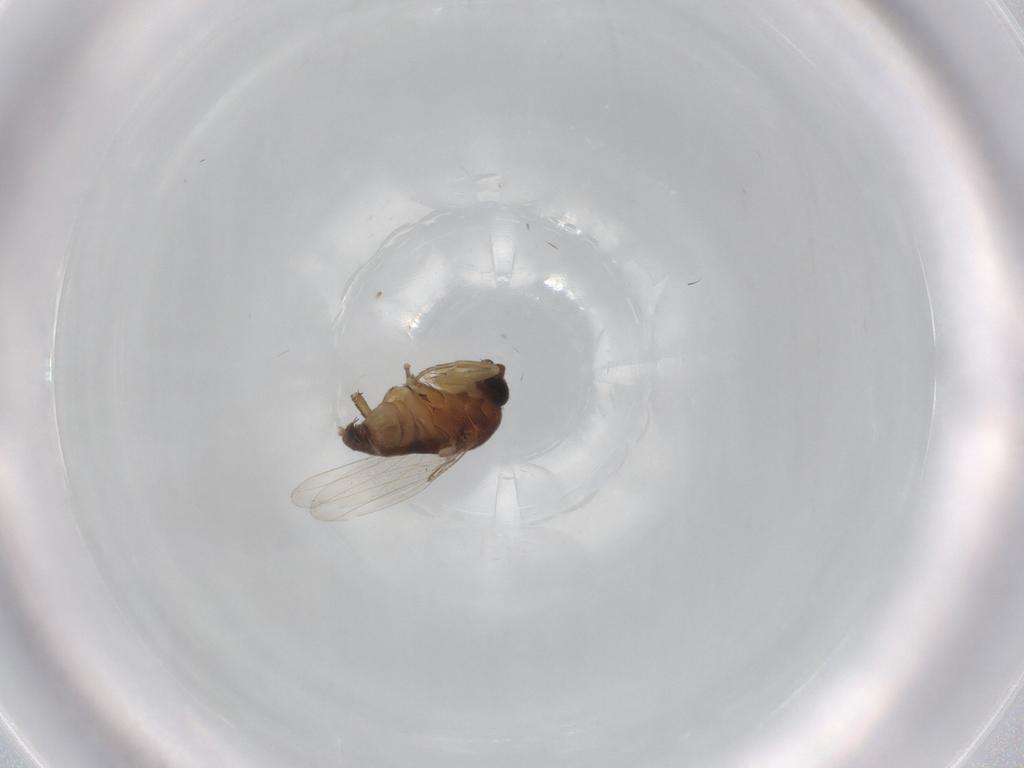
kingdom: Animalia
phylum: Arthropoda
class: Insecta
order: Diptera
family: Phoridae
